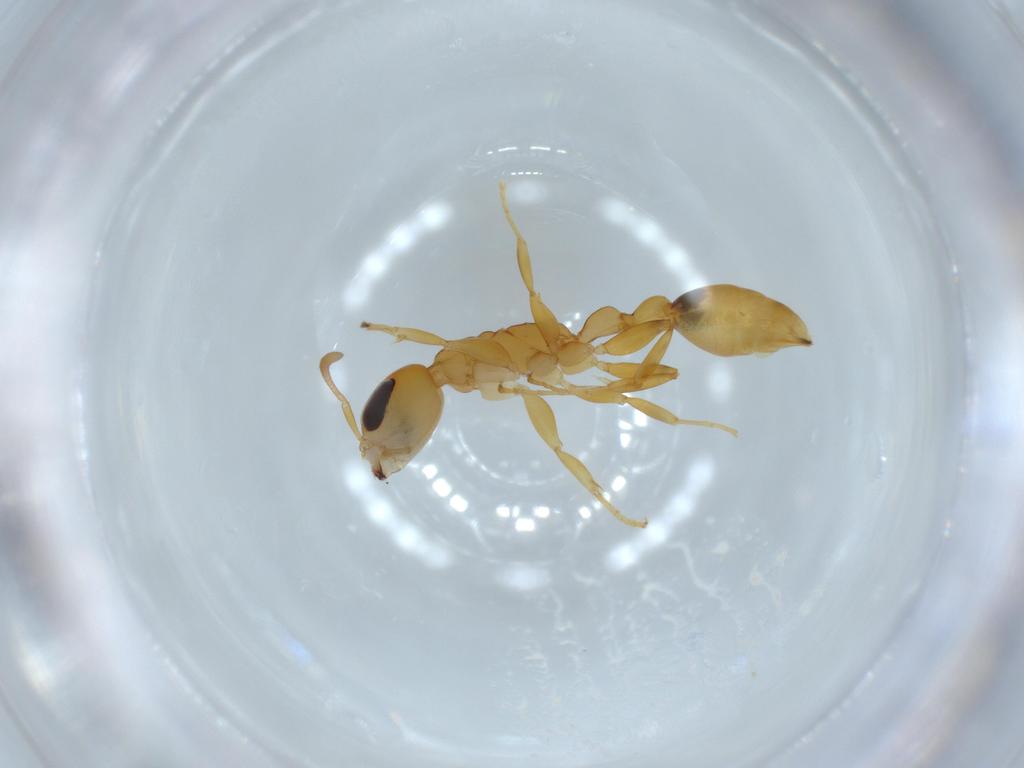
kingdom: Animalia
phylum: Arthropoda
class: Insecta
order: Hymenoptera
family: Formicidae
